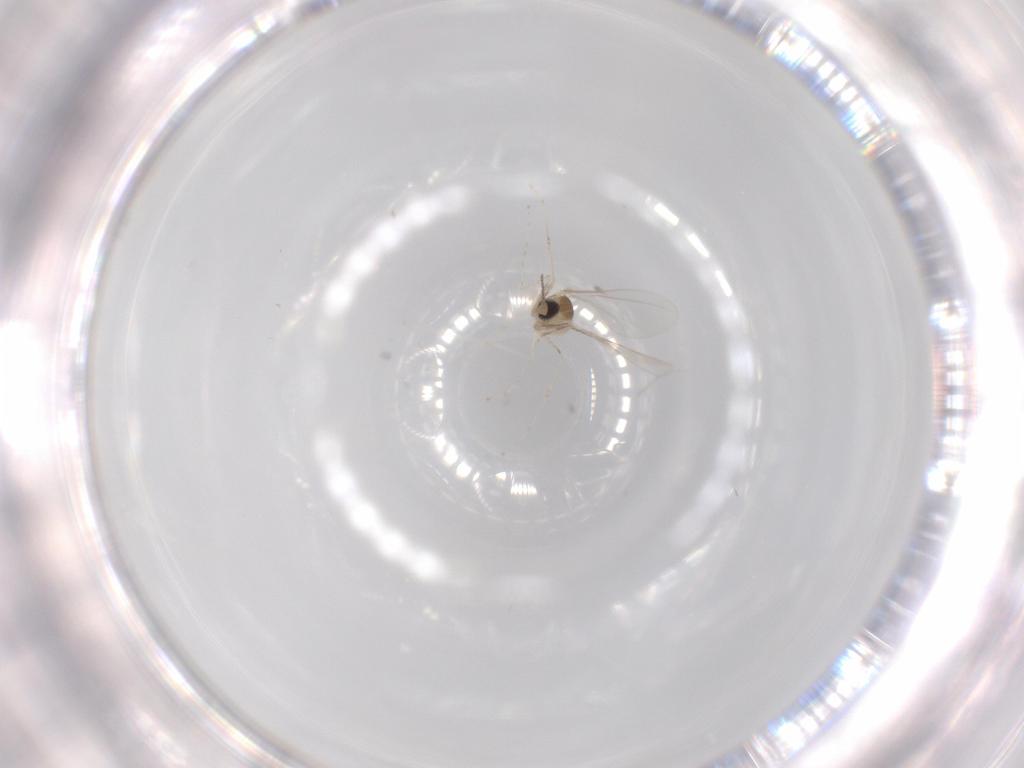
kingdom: Animalia
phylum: Arthropoda
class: Insecta
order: Diptera
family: Cecidomyiidae
